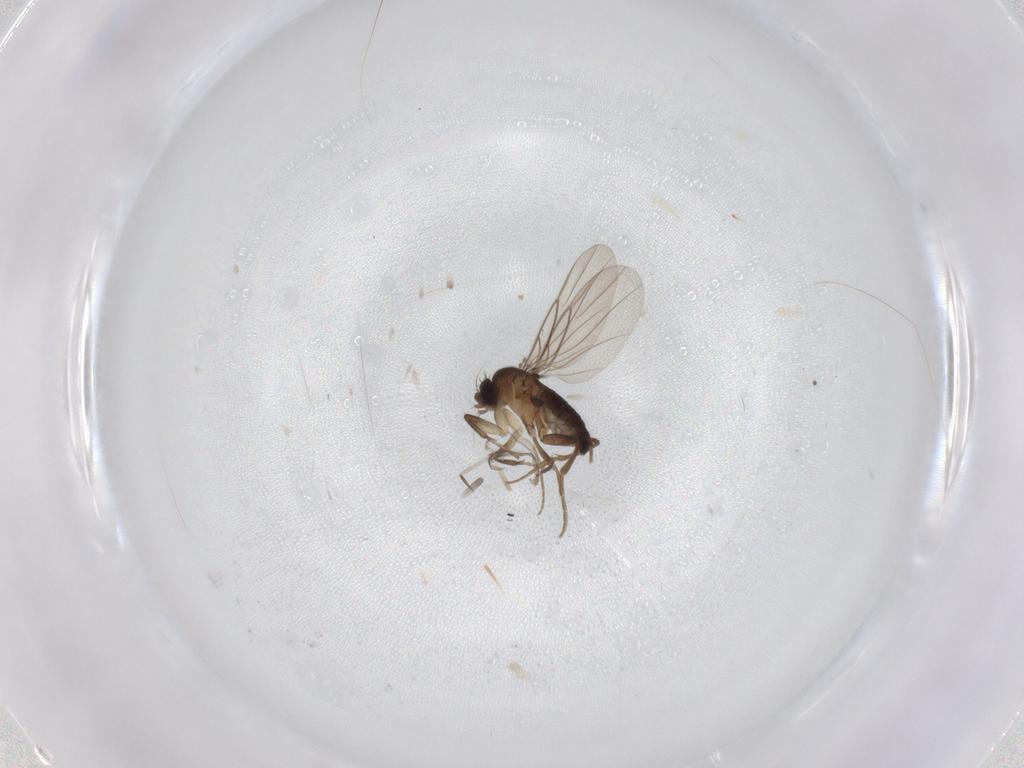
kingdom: Animalia
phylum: Arthropoda
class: Insecta
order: Diptera
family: Phoridae
